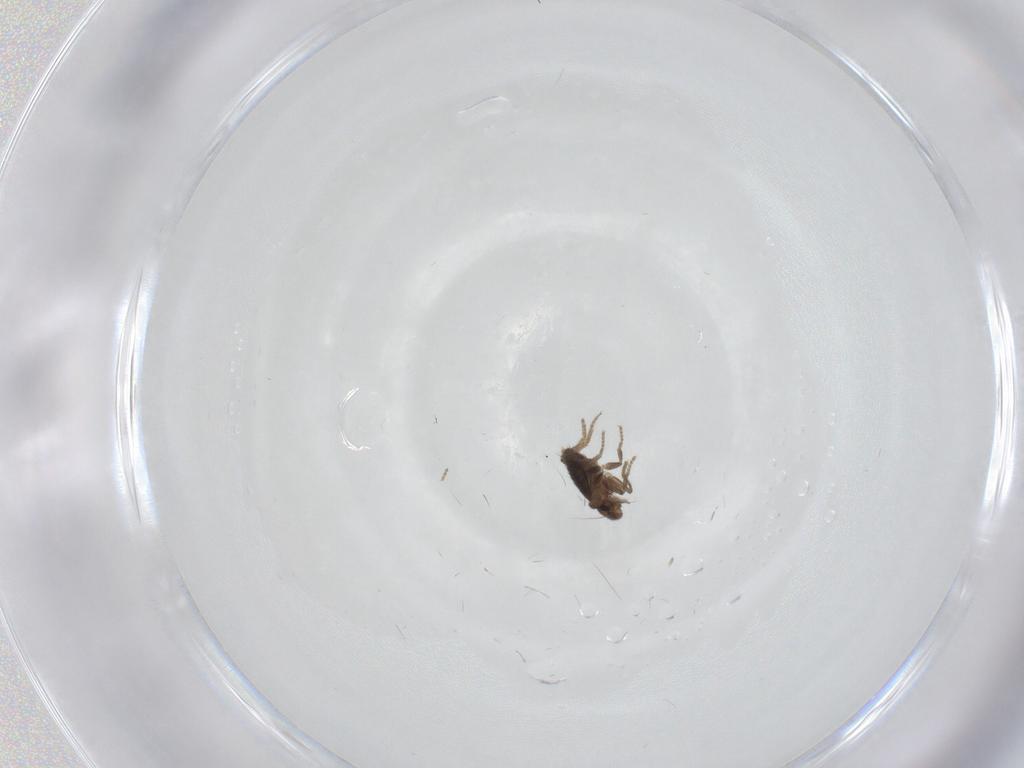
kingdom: Animalia
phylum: Arthropoda
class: Insecta
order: Diptera
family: Phoridae
